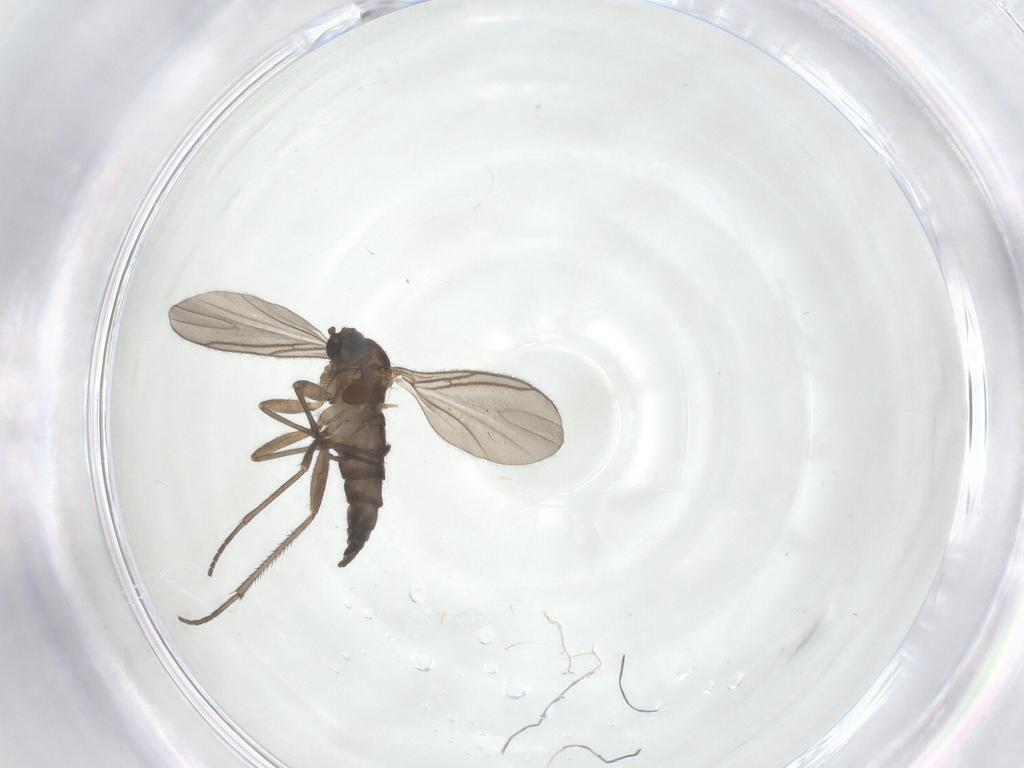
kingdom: Animalia
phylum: Arthropoda
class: Insecta
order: Diptera
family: Sciaridae
